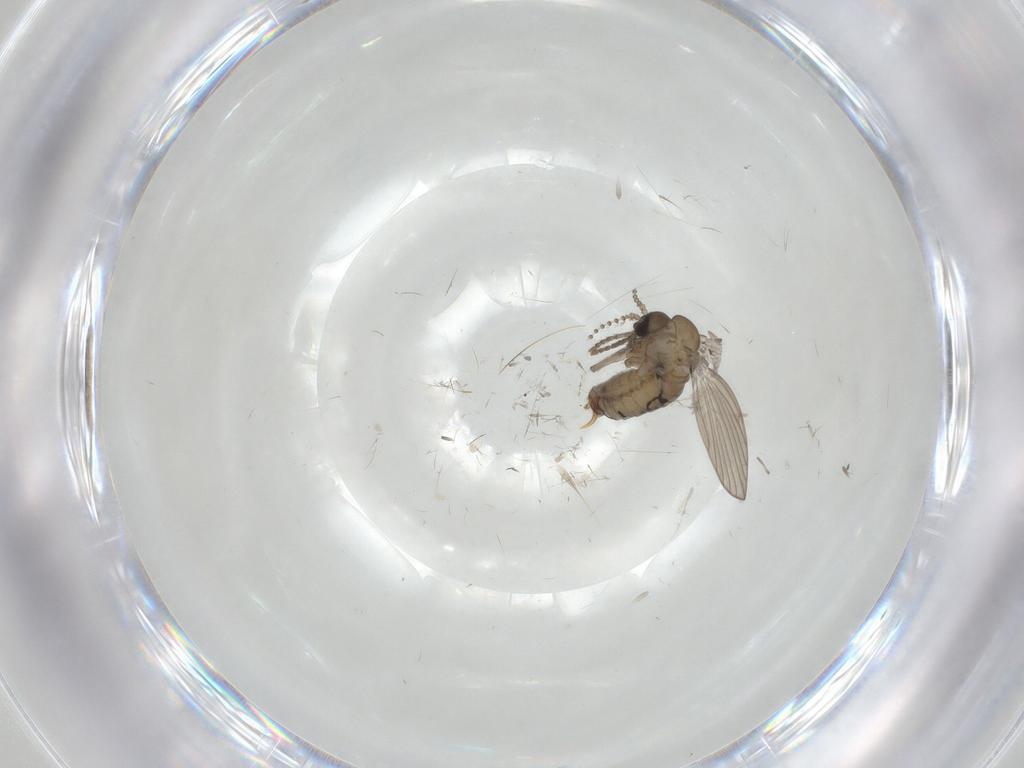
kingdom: Animalia
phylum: Arthropoda
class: Insecta
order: Diptera
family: Psychodidae
